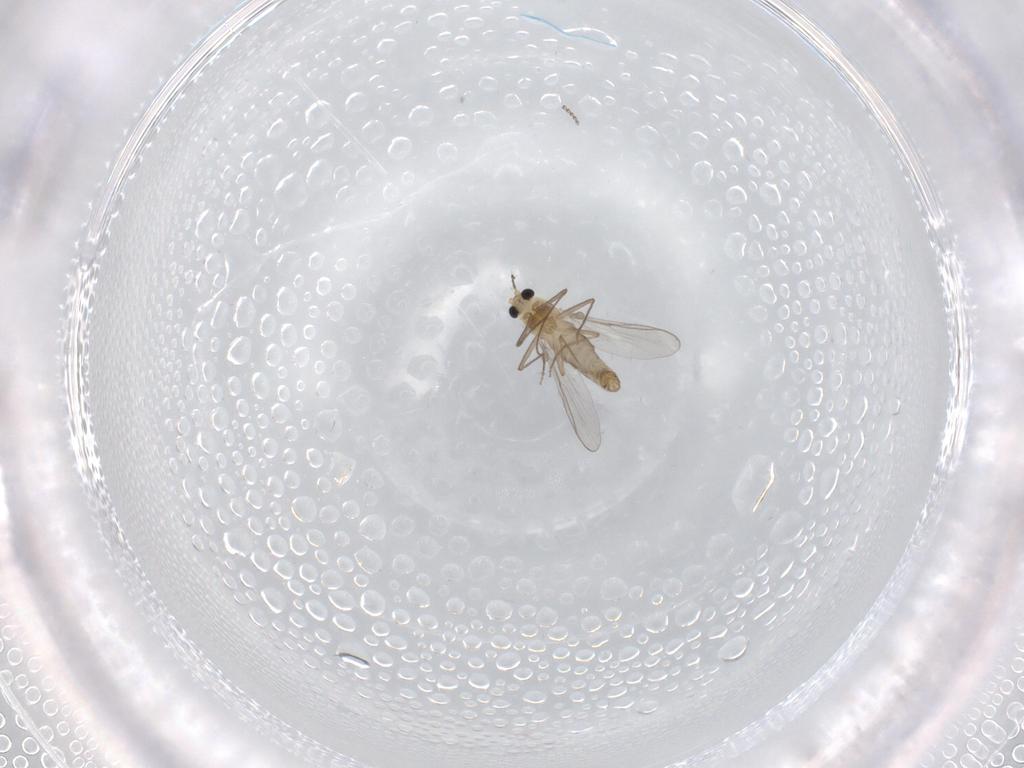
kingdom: Animalia
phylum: Arthropoda
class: Insecta
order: Diptera
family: Chironomidae
